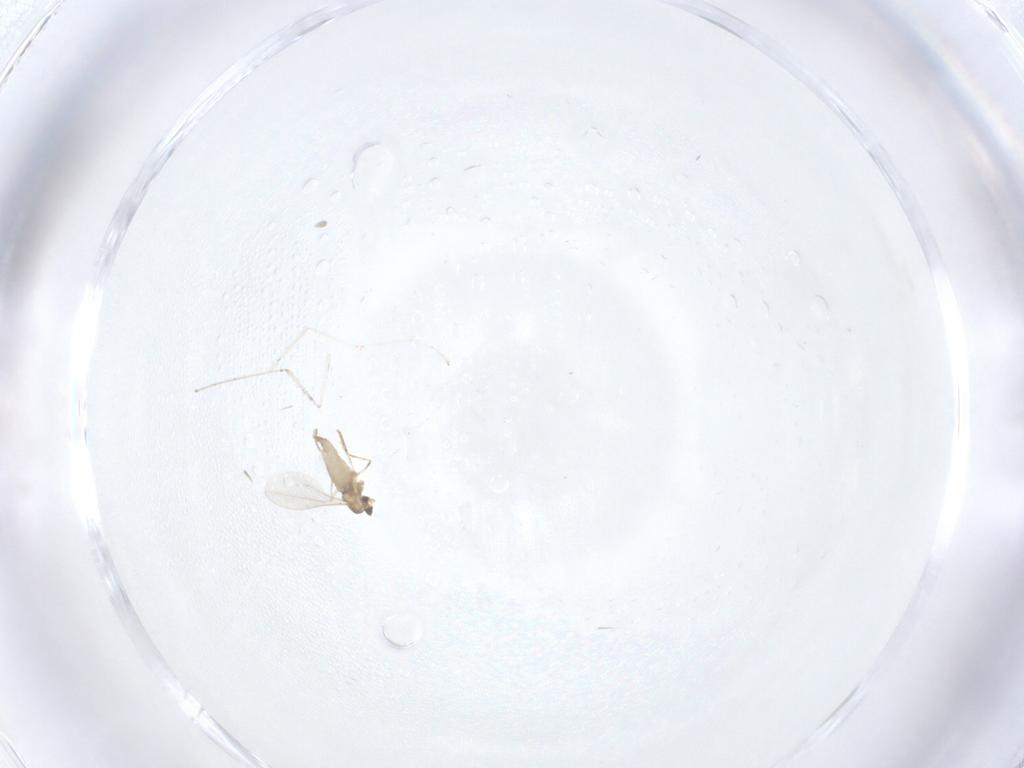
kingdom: Animalia
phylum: Arthropoda
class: Insecta
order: Diptera
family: Cecidomyiidae
